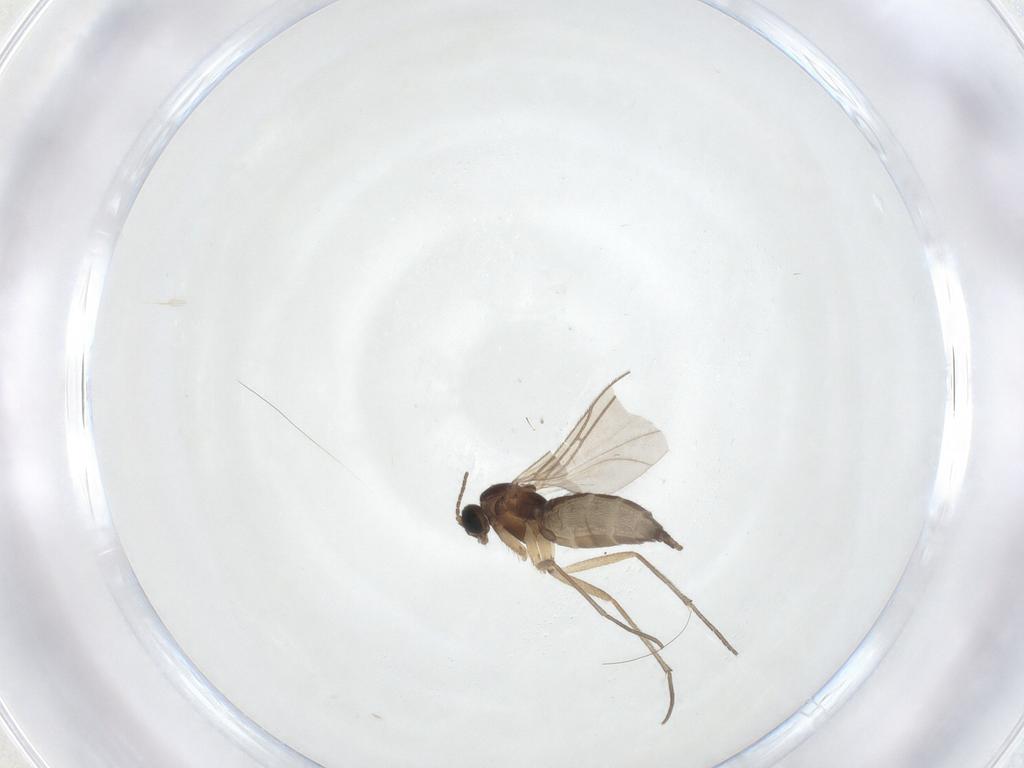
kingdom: Animalia
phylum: Arthropoda
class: Insecta
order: Diptera
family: Sciaridae
